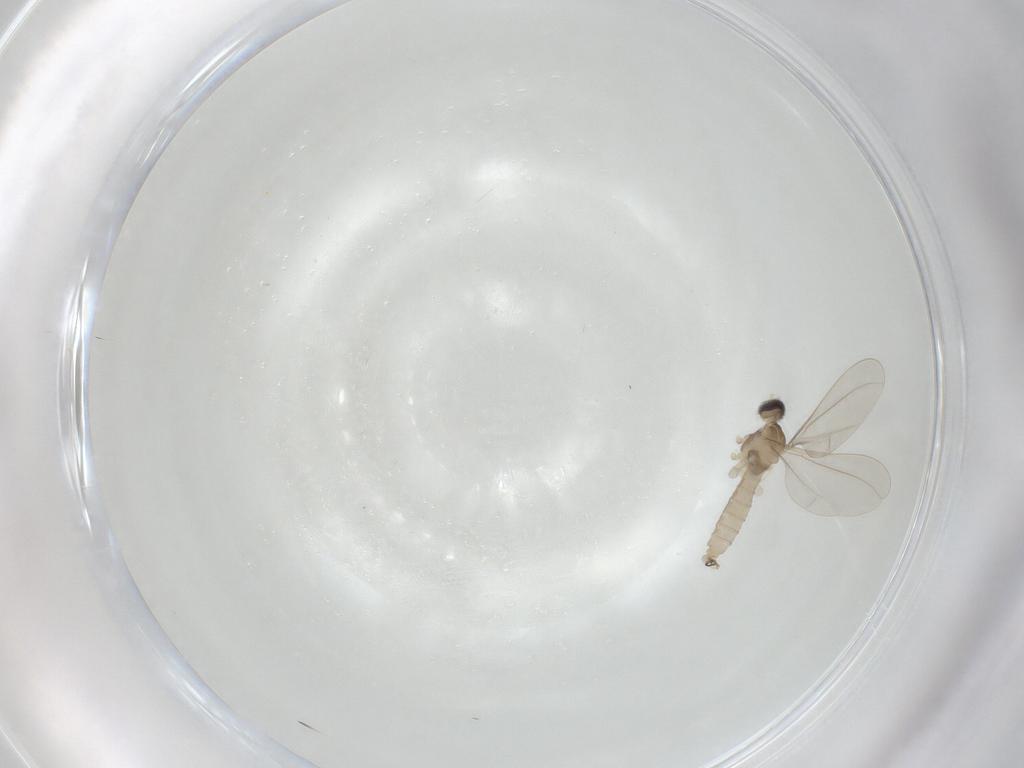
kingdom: Animalia
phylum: Arthropoda
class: Insecta
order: Diptera
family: Cecidomyiidae
